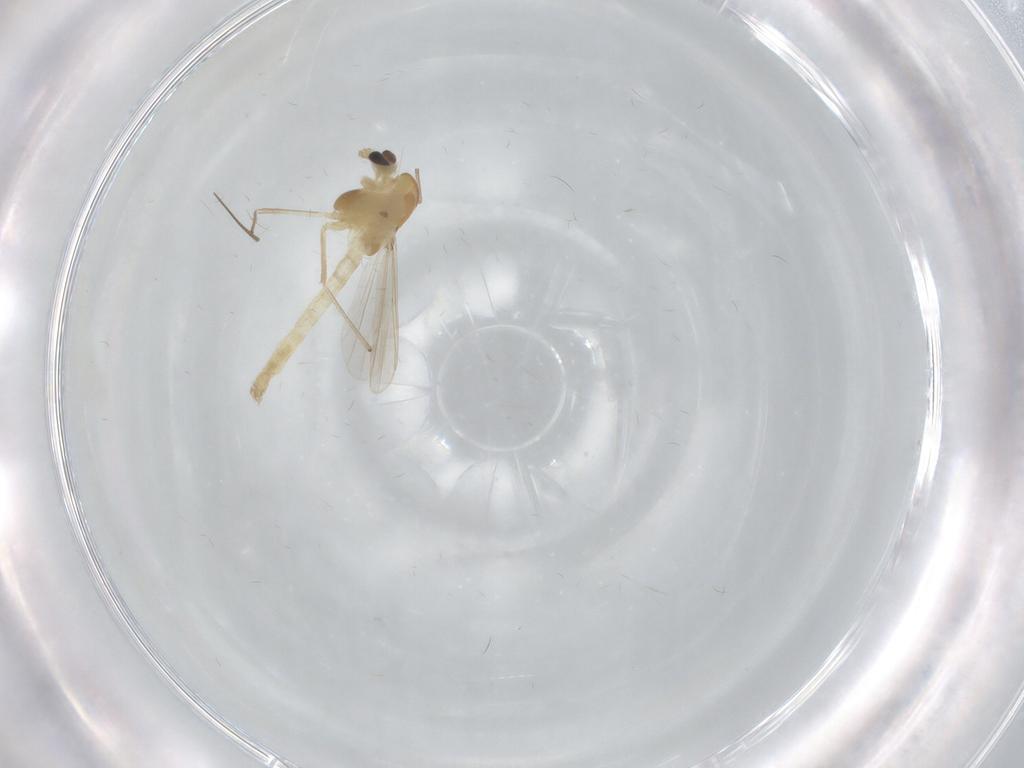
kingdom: Animalia
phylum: Arthropoda
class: Insecta
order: Diptera
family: Chironomidae
